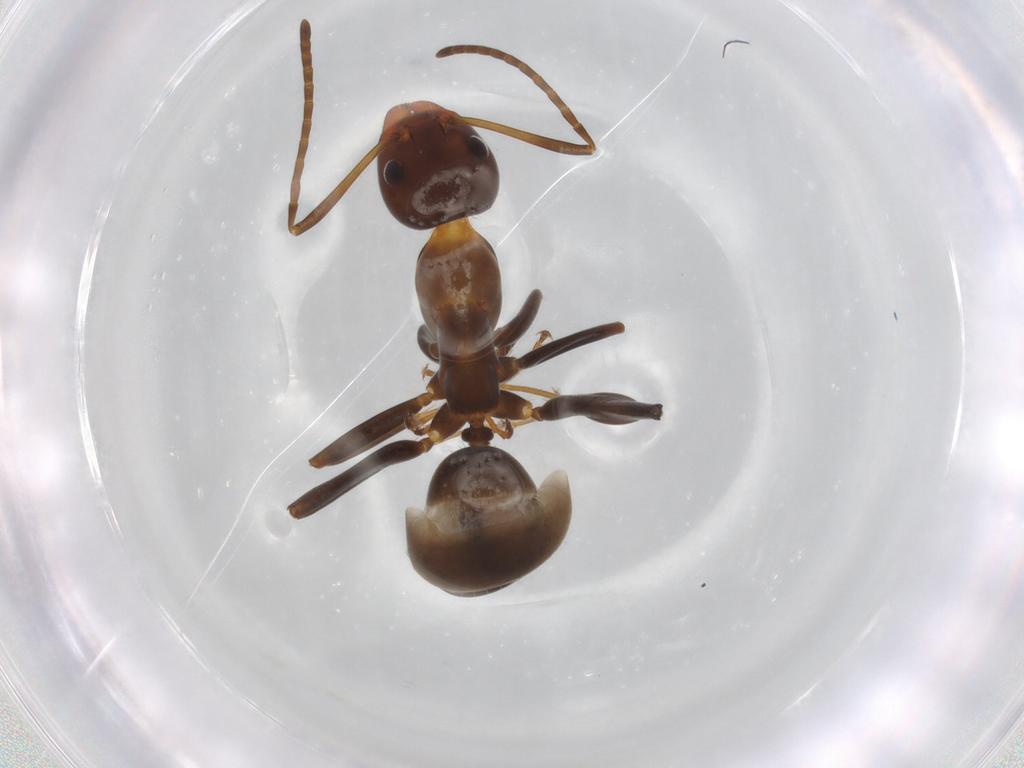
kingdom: Animalia
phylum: Arthropoda
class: Insecta
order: Hymenoptera
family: Formicidae
